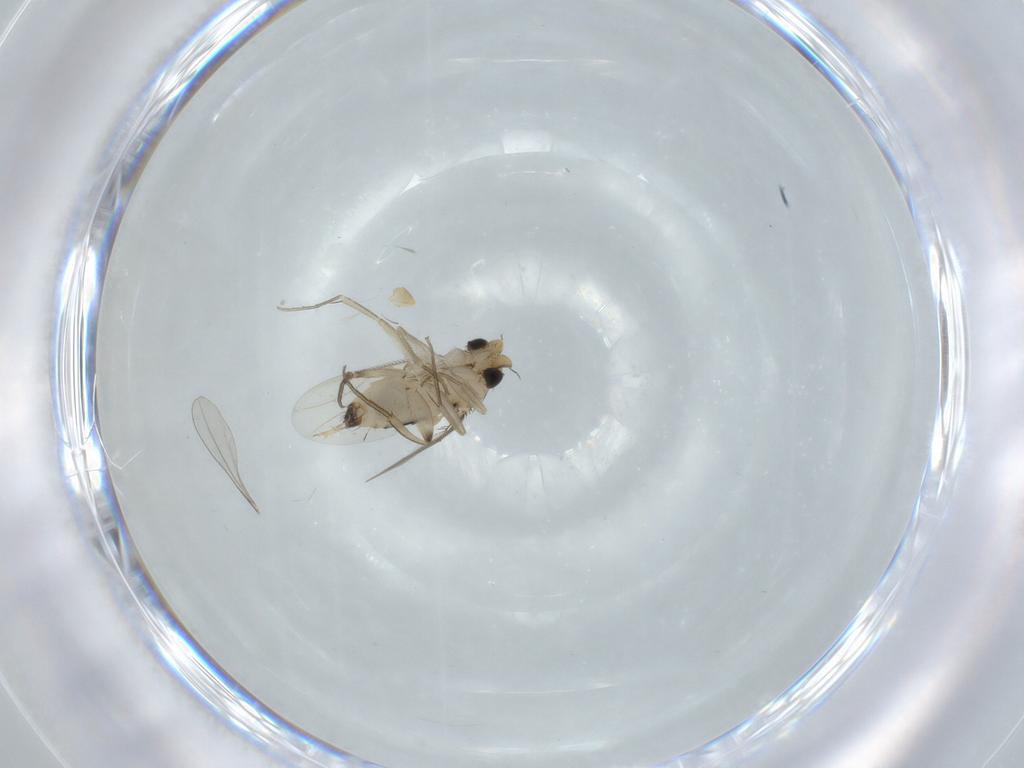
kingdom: Animalia
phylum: Arthropoda
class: Insecta
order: Diptera
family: Phoridae
